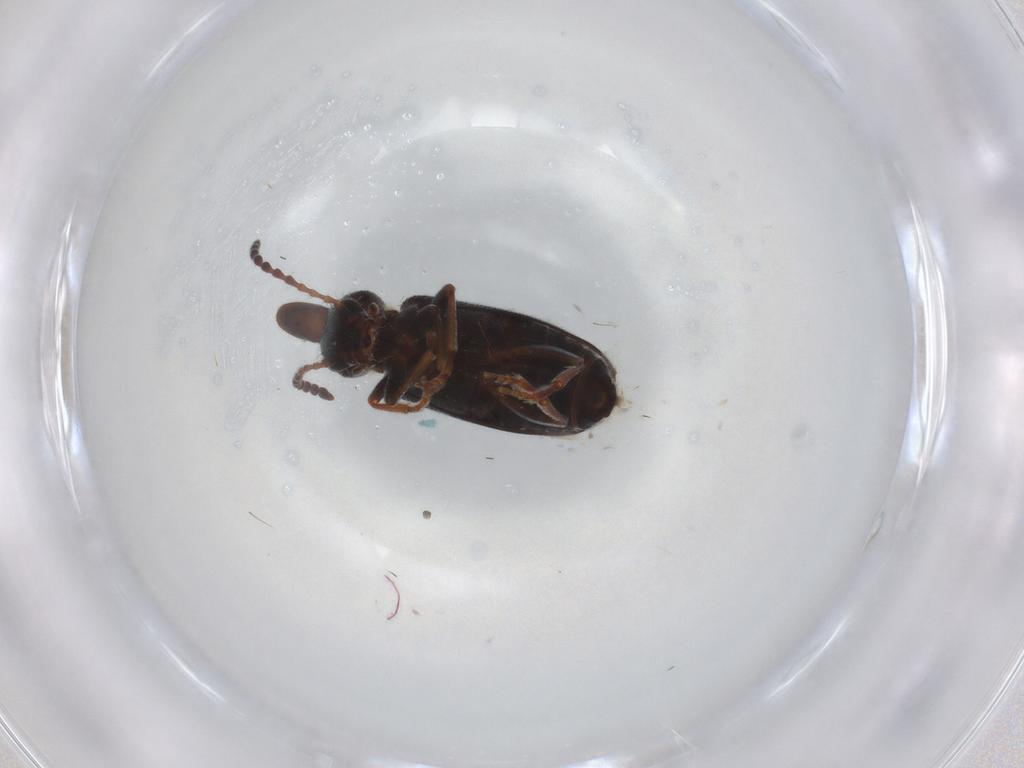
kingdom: Animalia
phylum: Arthropoda
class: Insecta
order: Coleoptera
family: Anthicidae
